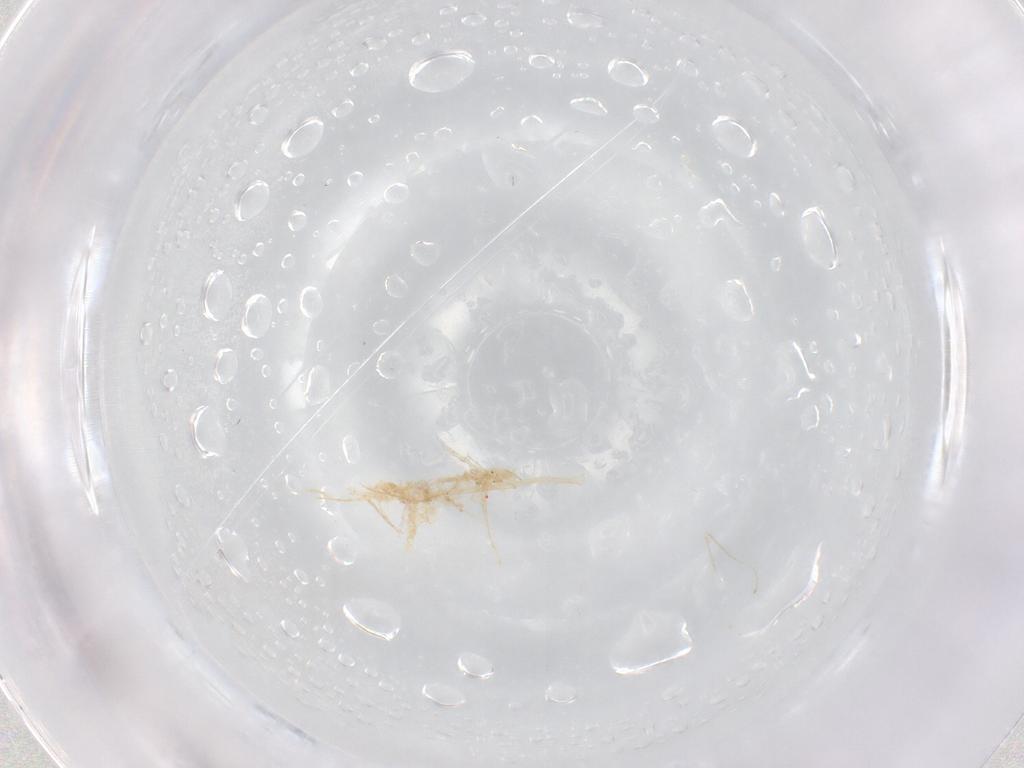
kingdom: Animalia
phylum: Arthropoda
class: Insecta
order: Diptera
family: Cecidomyiidae
